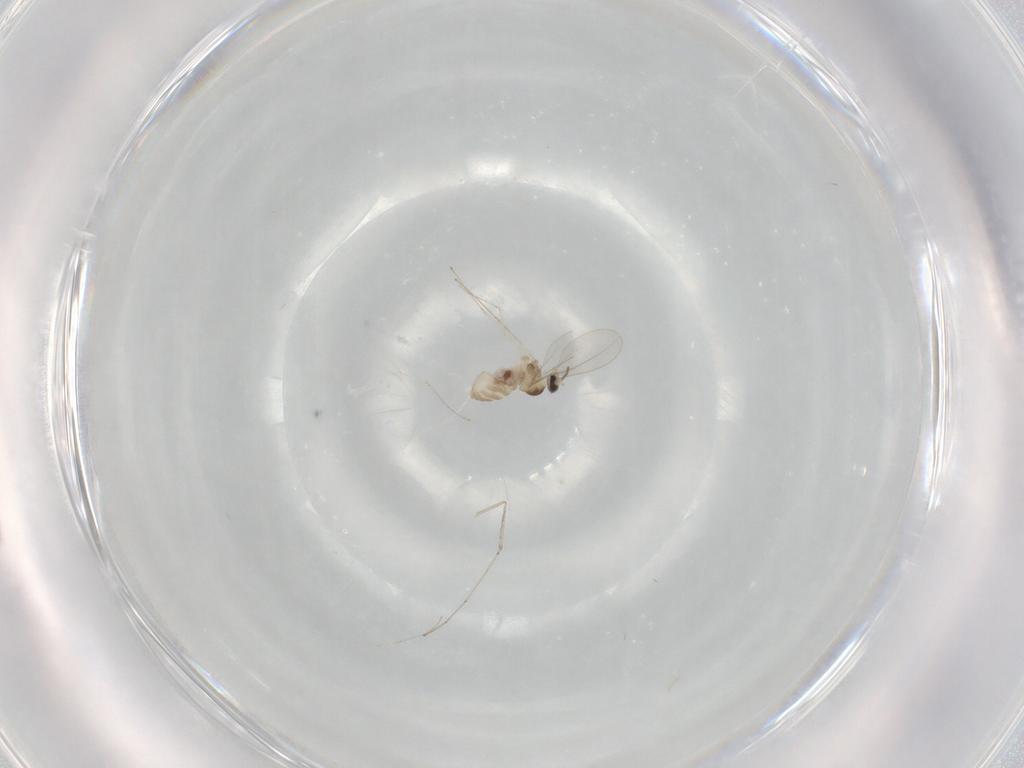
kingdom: Animalia
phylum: Arthropoda
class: Insecta
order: Diptera
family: Cecidomyiidae
